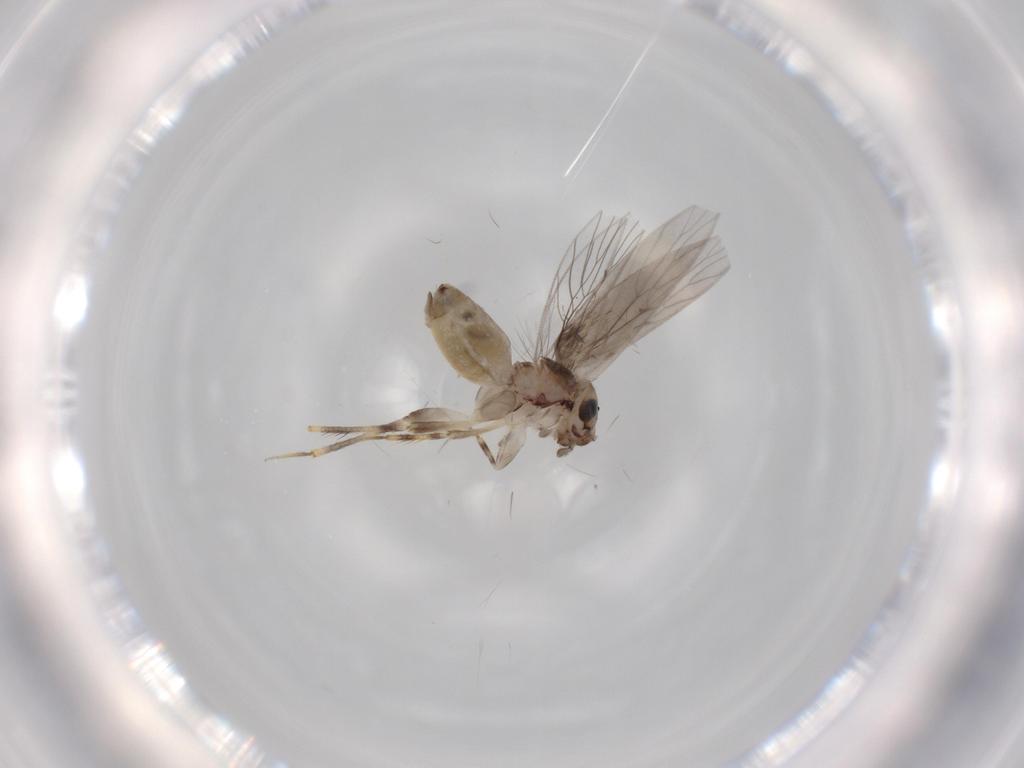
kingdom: Animalia
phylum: Arthropoda
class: Insecta
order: Psocodea
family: Lepidopsocidae
